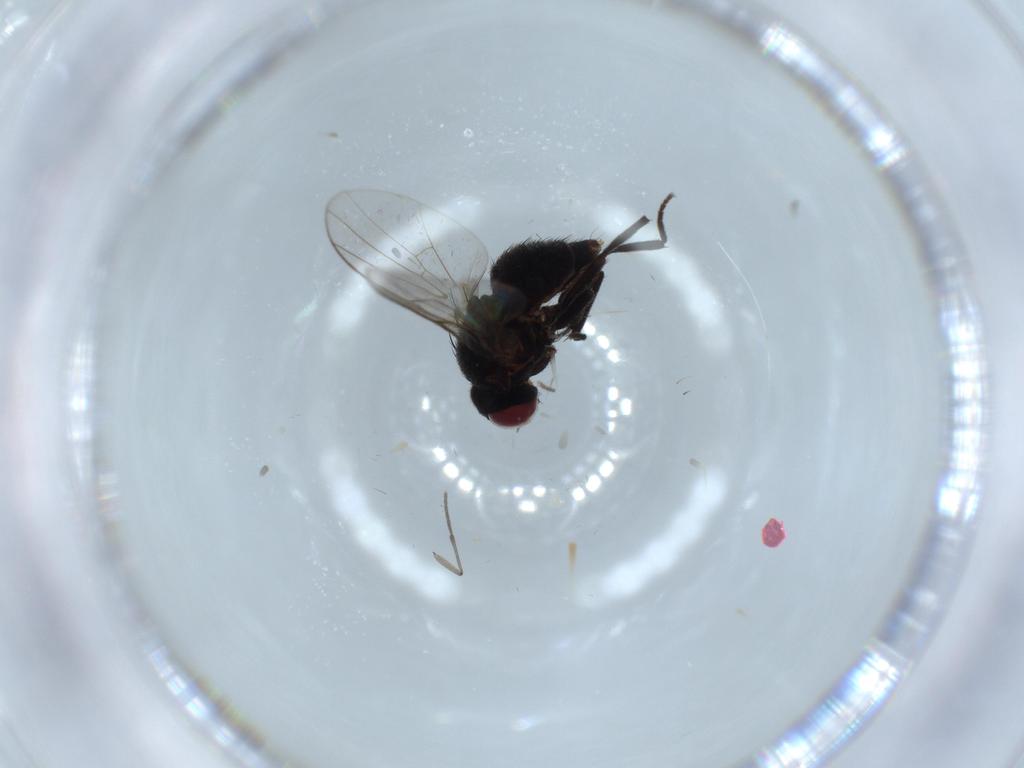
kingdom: Animalia
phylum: Arthropoda
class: Insecta
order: Diptera
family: Chironomidae
